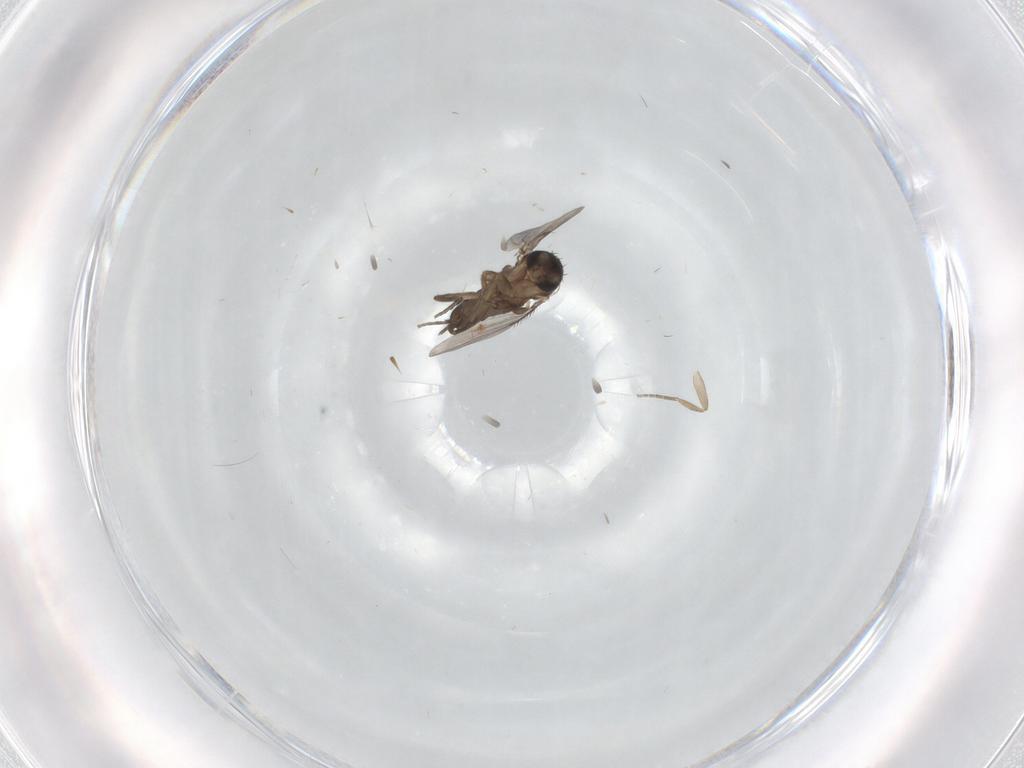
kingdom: Animalia
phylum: Arthropoda
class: Insecta
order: Diptera
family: Phoridae
